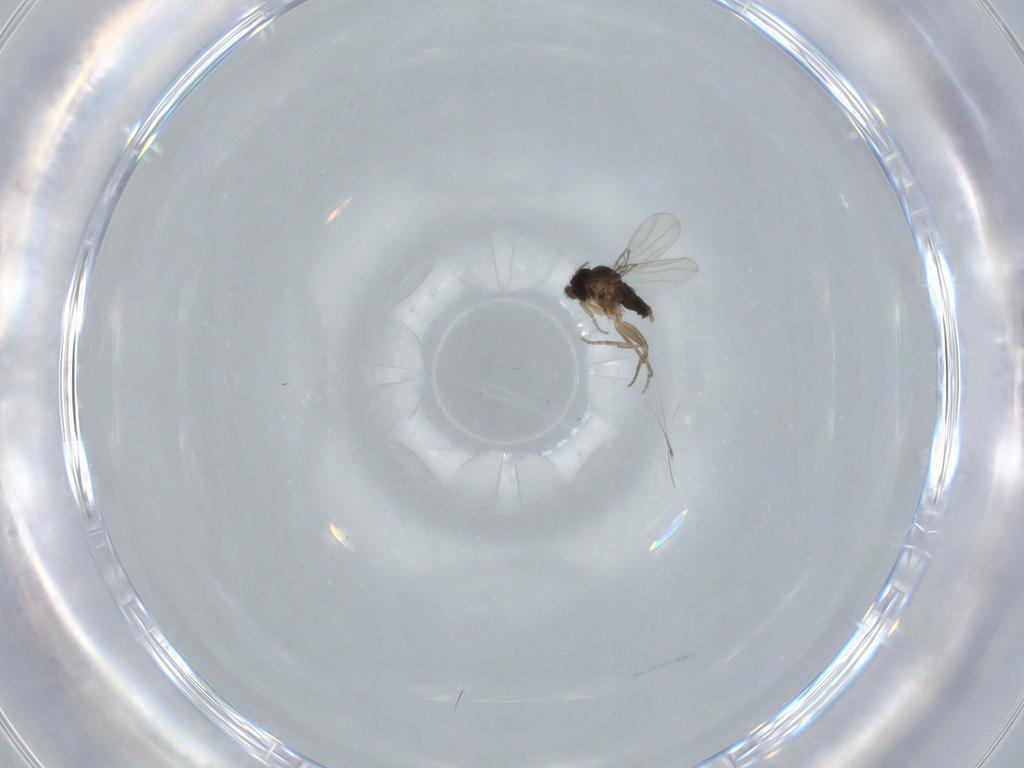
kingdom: Animalia
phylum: Arthropoda
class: Insecta
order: Diptera
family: Phoridae
